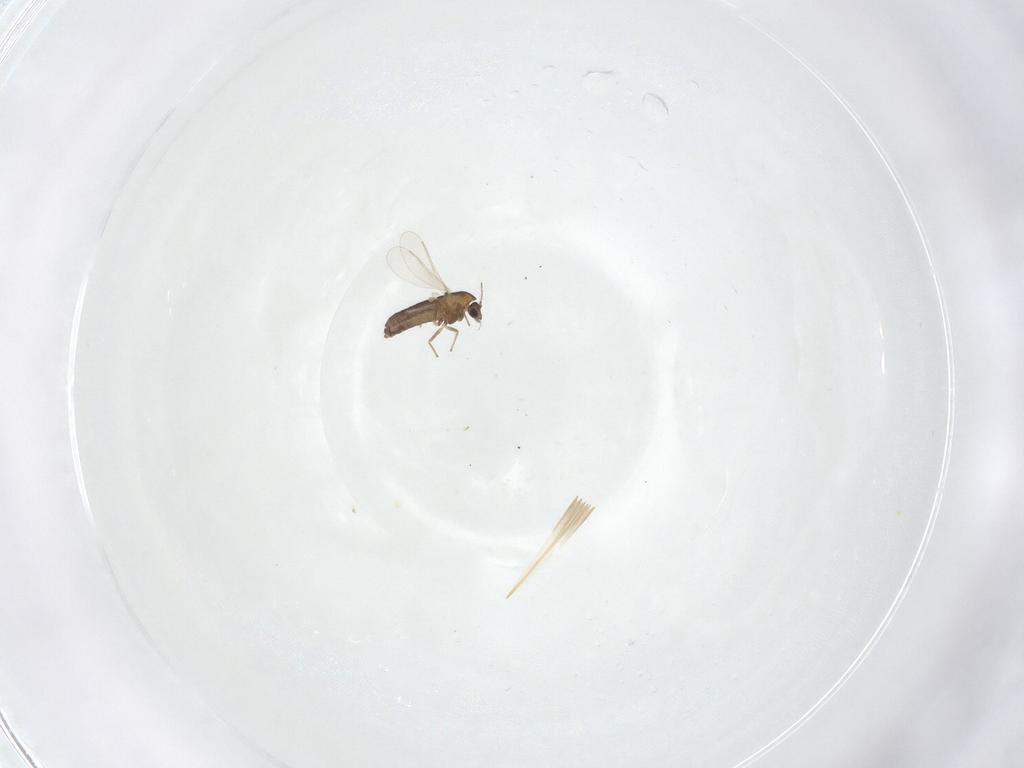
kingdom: Animalia
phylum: Arthropoda
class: Insecta
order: Diptera
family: Chironomidae
